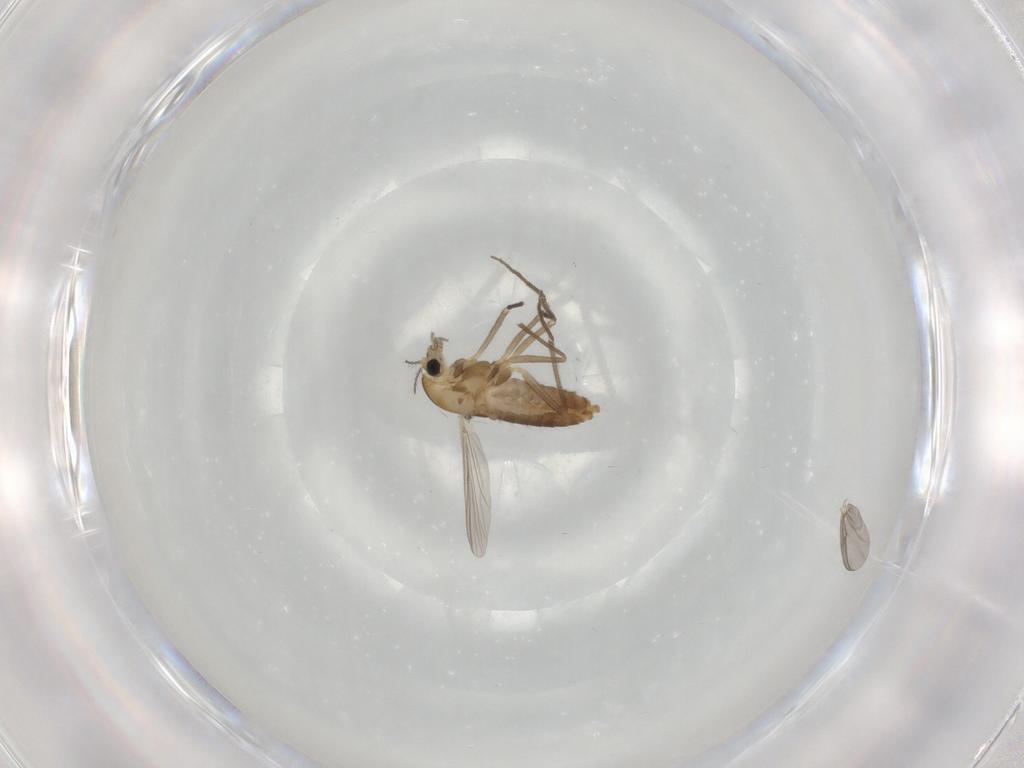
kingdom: Animalia
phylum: Arthropoda
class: Insecta
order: Diptera
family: Chironomidae
